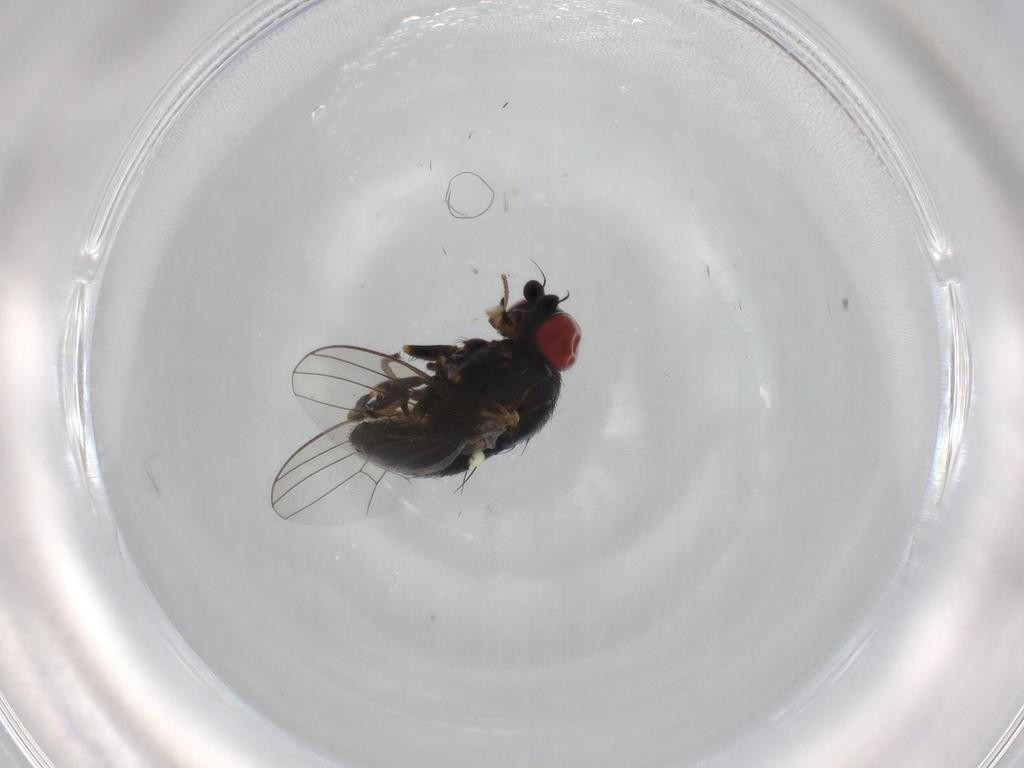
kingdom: Animalia
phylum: Arthropoda
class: Insecta
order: Diptera
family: Chamaemyiidae
